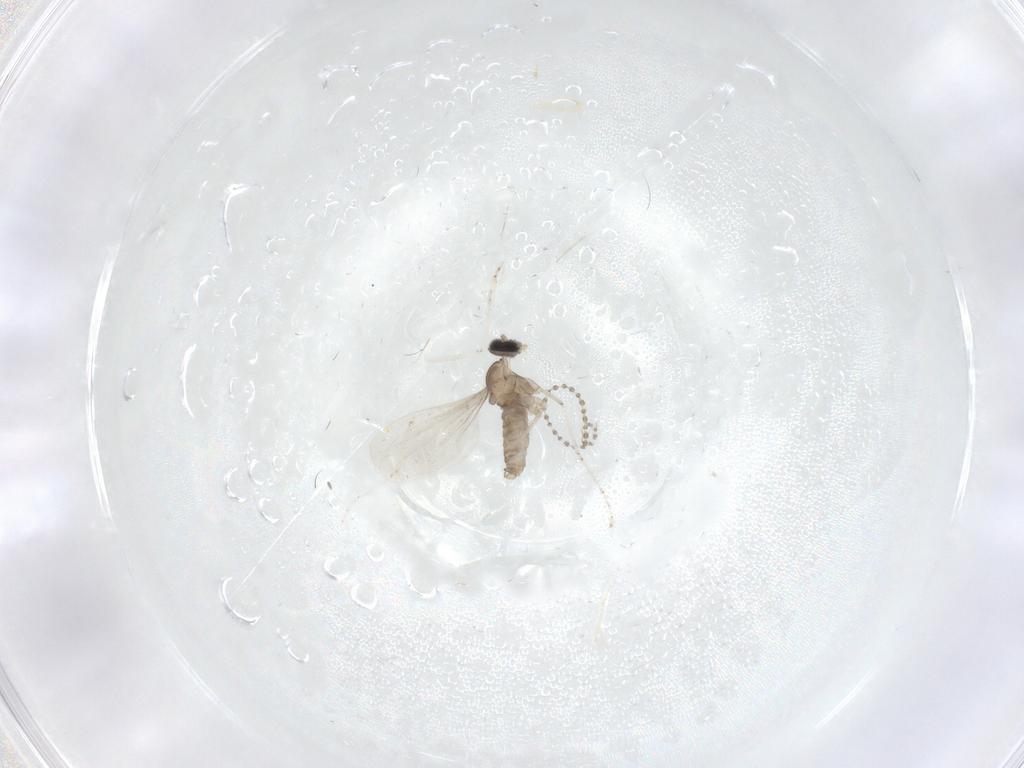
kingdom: Animalia
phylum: Arthropoda
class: Insecta
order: Diptera
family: Cecidomyiidae
